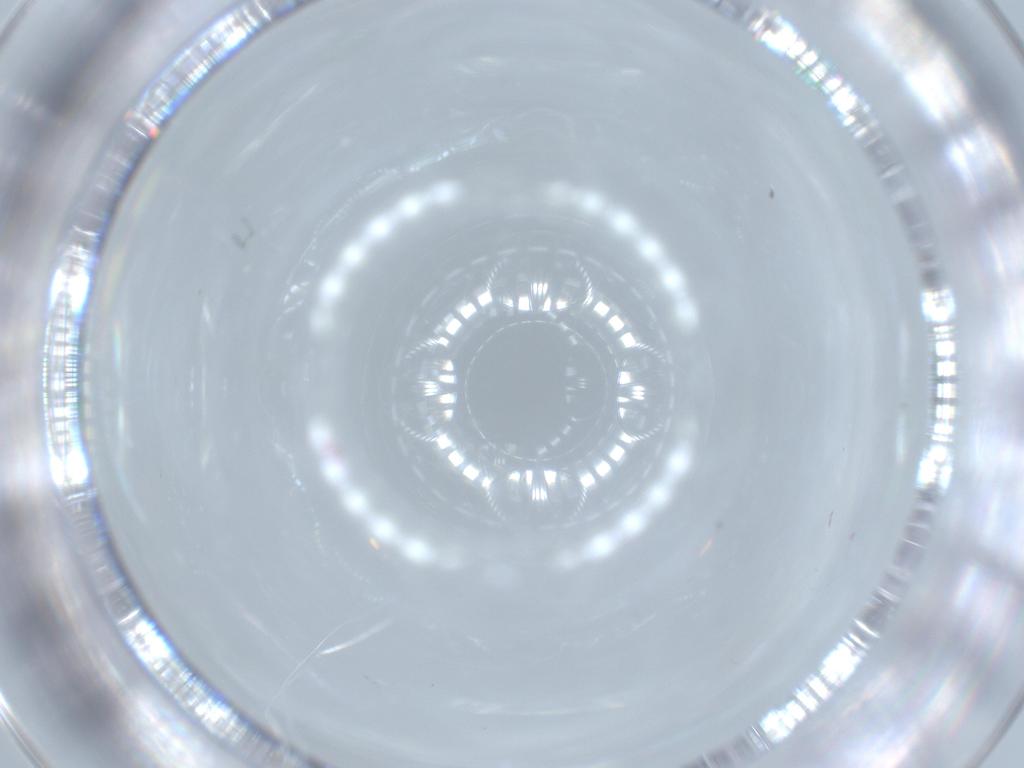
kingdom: Animalia
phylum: Arthropoda
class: Insecta
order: Diptera
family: Cecidomyiidae
